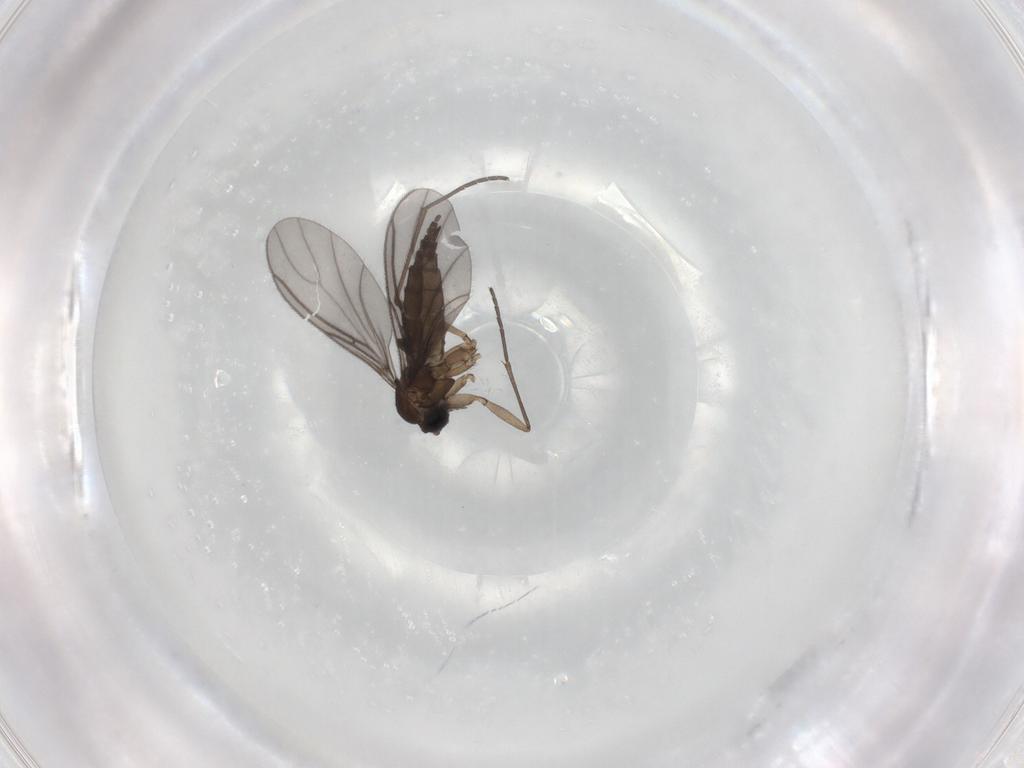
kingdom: Animalia
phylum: Arthropoda
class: Insecta
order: Diptera
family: Sciaridae
